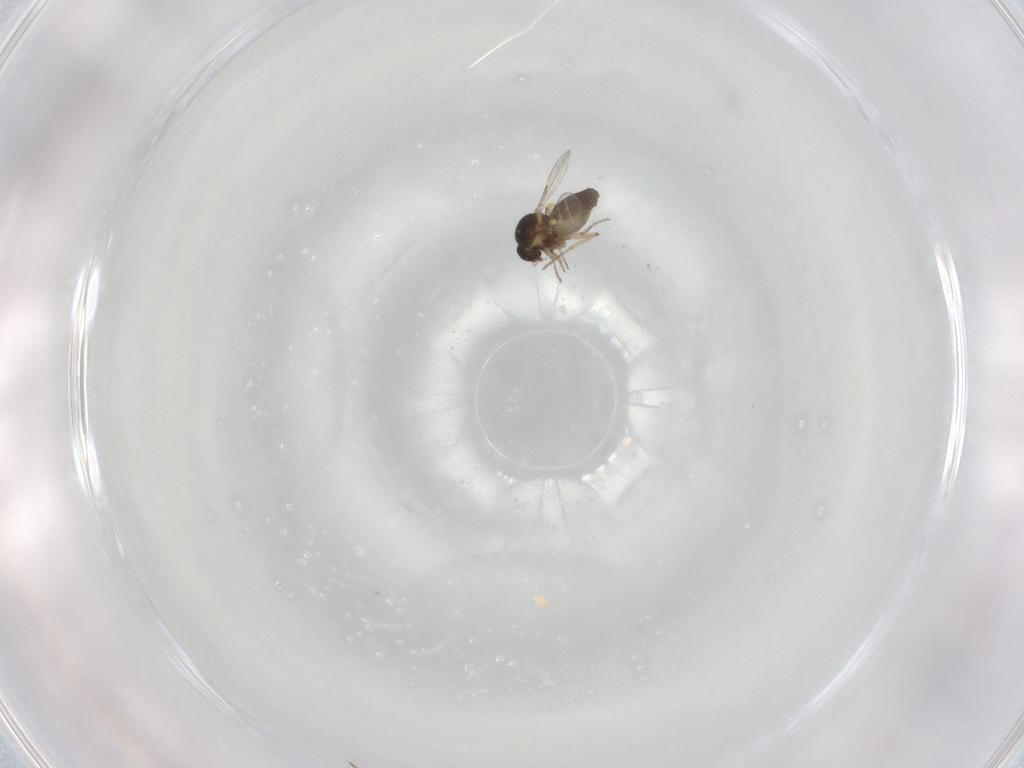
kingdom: Animalia
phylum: Arthropoda
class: Insecta
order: Diptera
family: Ceratopogonidae
